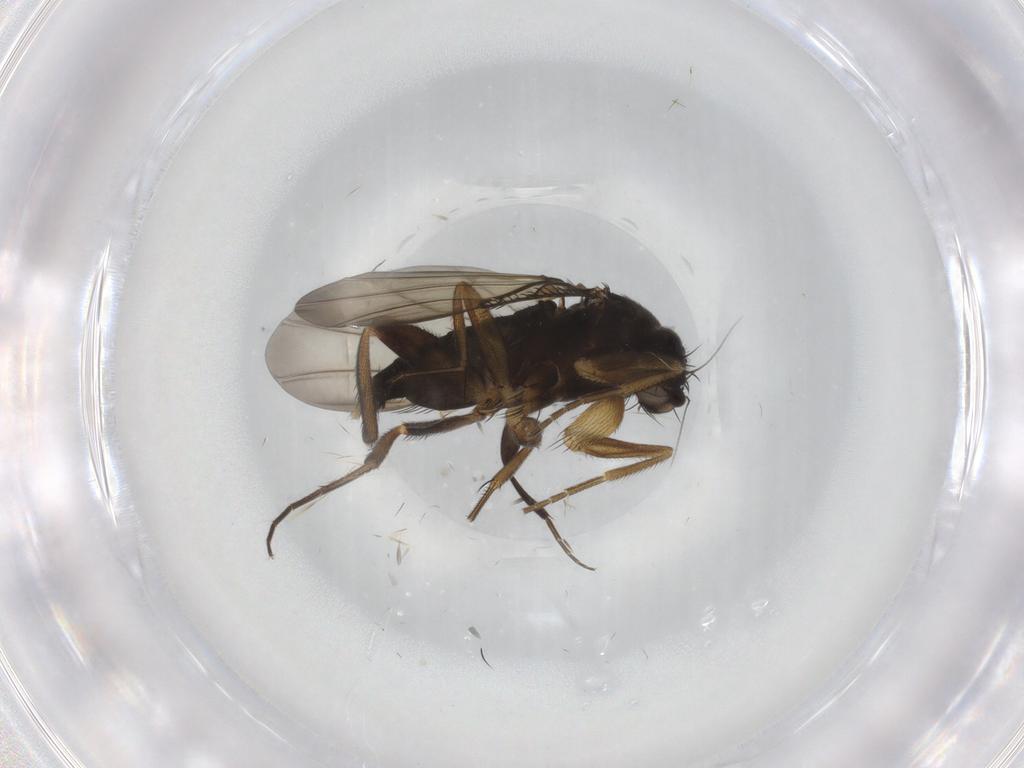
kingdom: Animalia
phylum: Arthropoda
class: Insecta
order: Diptera
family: Phoridae
